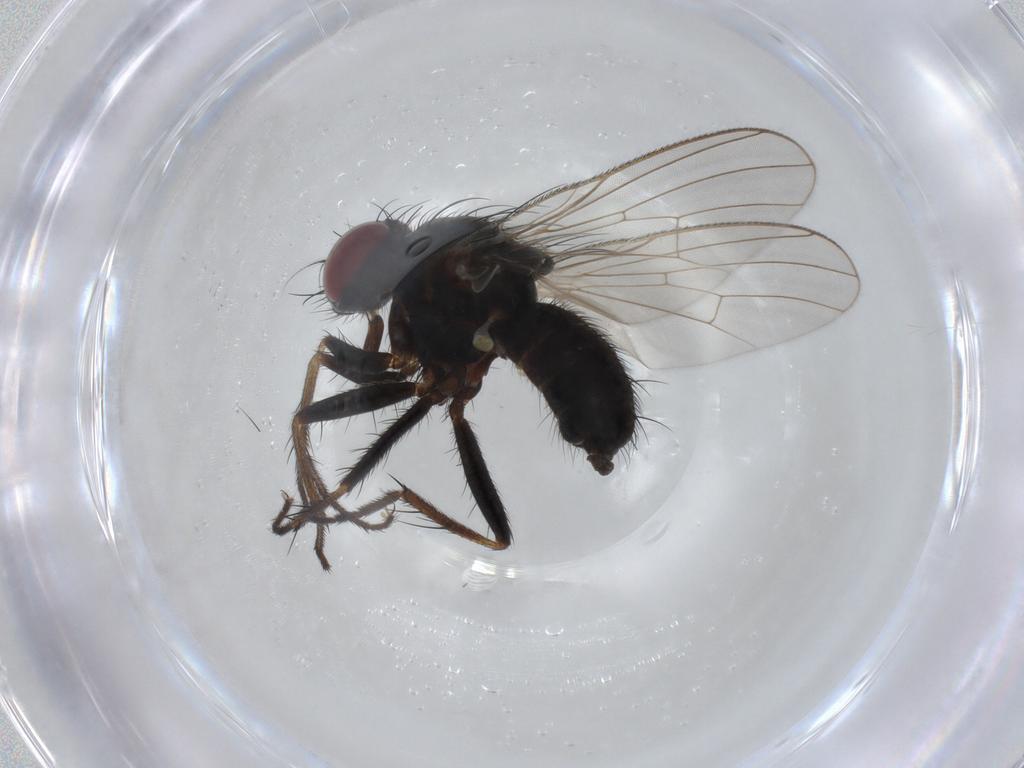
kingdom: Animalia
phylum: Arthropoda
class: Insecta
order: Diptera
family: Muscidae
